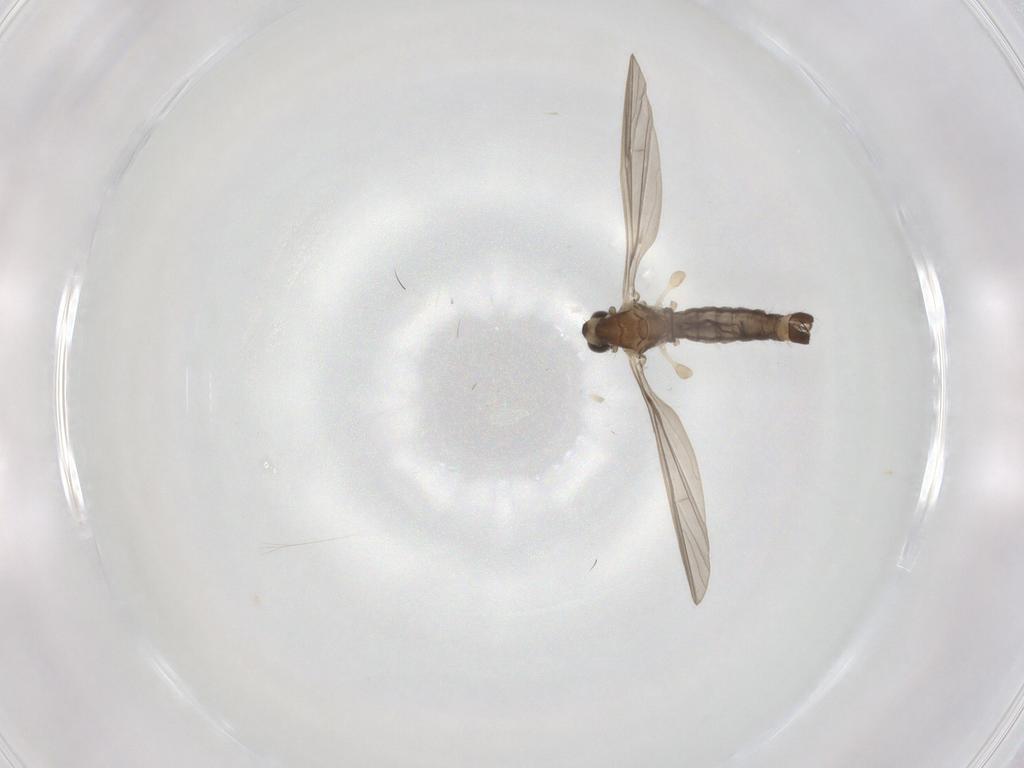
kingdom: Animalia
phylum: Arthropoda
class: Insecta
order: Diptera
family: Chironomidae
